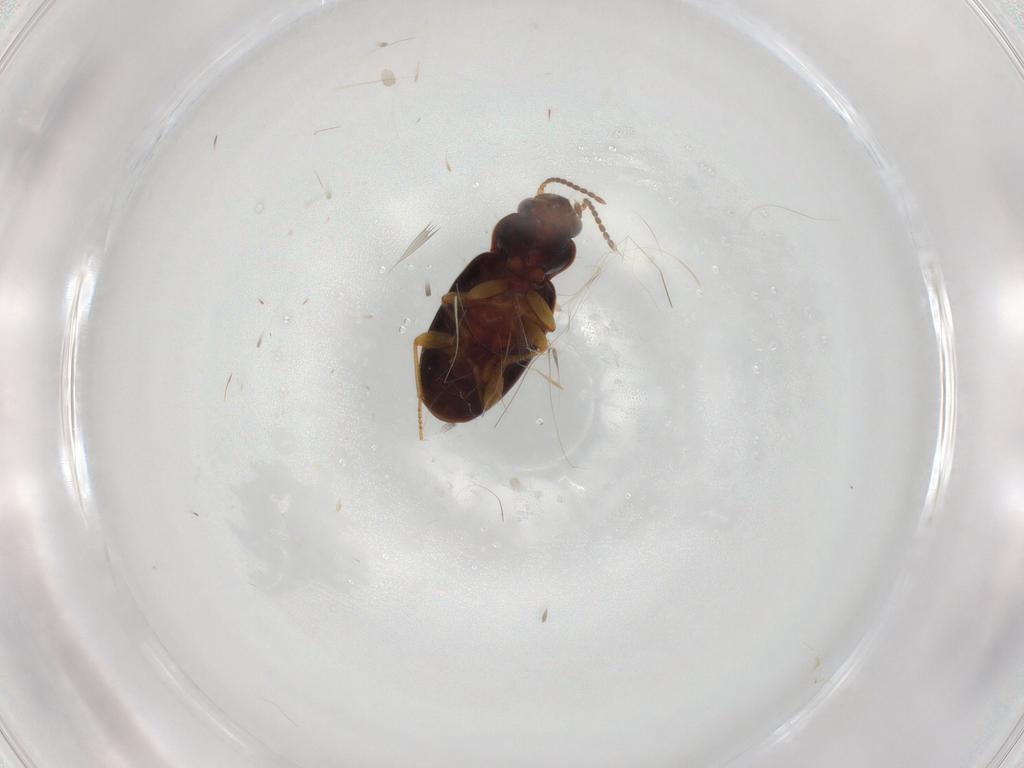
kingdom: Animalia
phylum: Arthropoda
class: Insecta
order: Coleoptera
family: Carabidae
